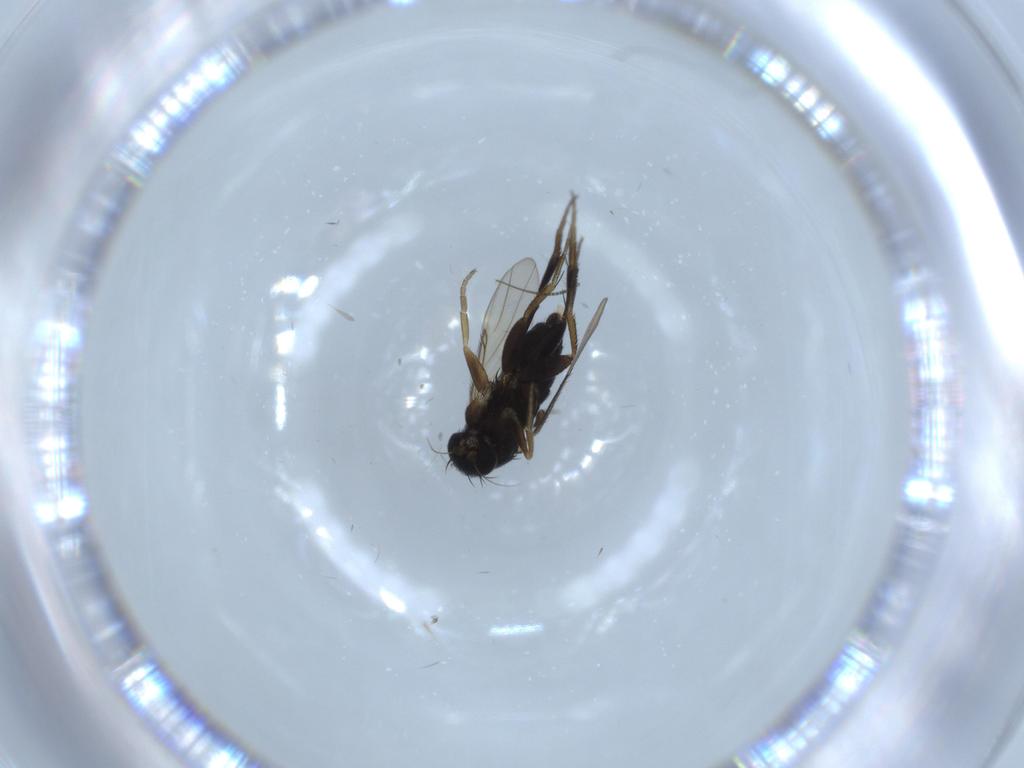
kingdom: Animalia
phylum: Arthropoda
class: Insecta
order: Diptera
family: Phoridae
